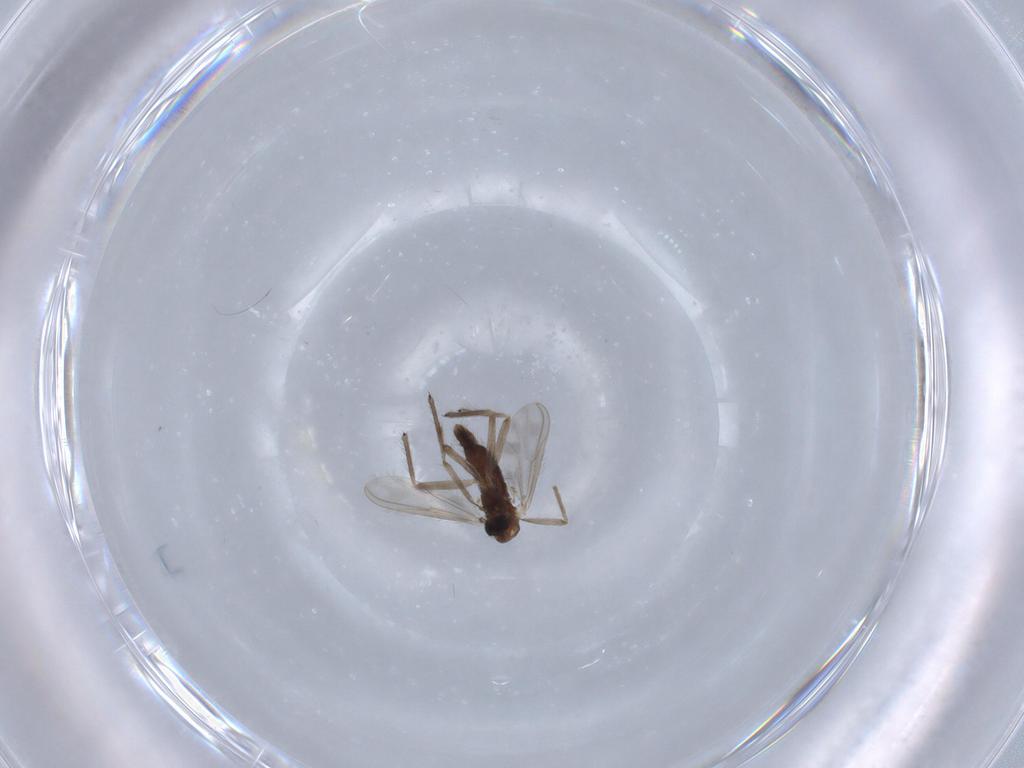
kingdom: Animalia
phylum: Arthropoda
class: Insecta
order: Diptera
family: Chironomidae
